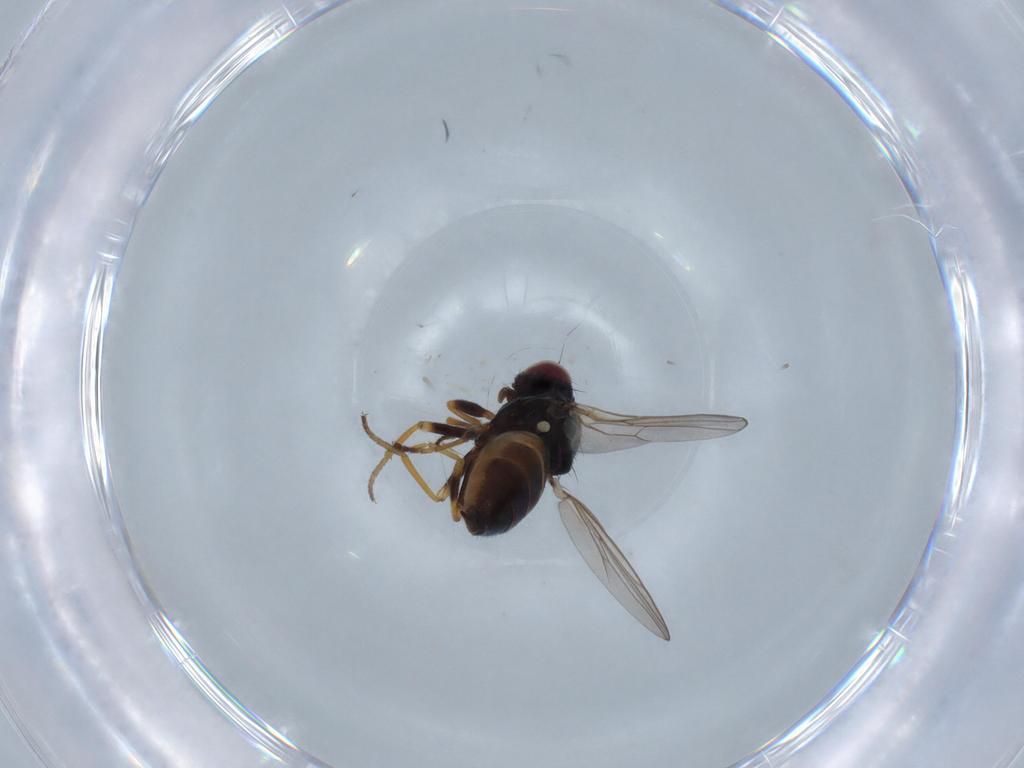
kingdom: Animalia
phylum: Arthropoda
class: Insecta
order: Diptera
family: Chloropidae
